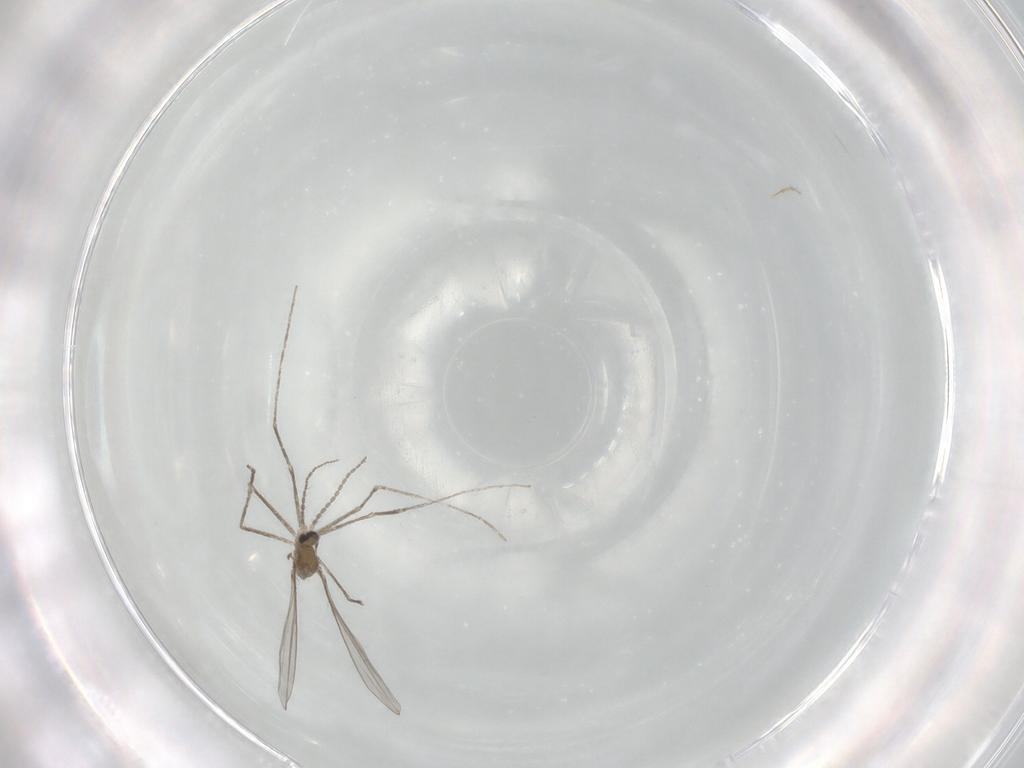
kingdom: Animalia
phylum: Arthropoda
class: Insecta
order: Diptera
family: Cecidomyiidae
